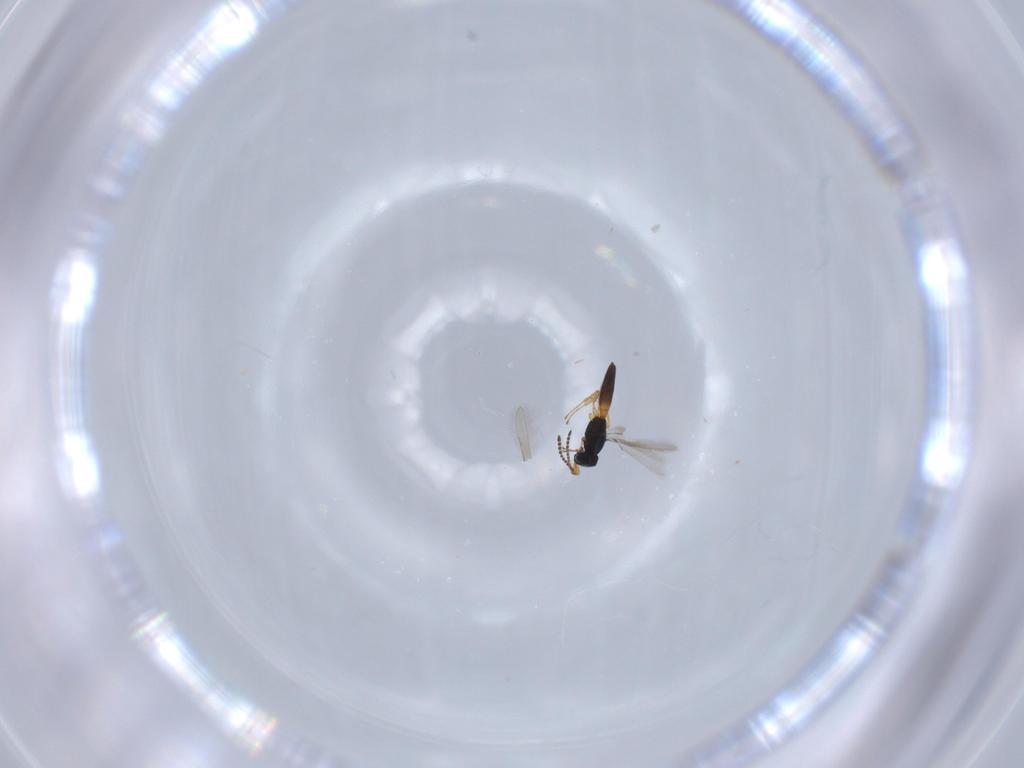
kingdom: Animalia
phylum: Arthropoda
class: Insecta
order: Hymenoptera
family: Scelionidae
